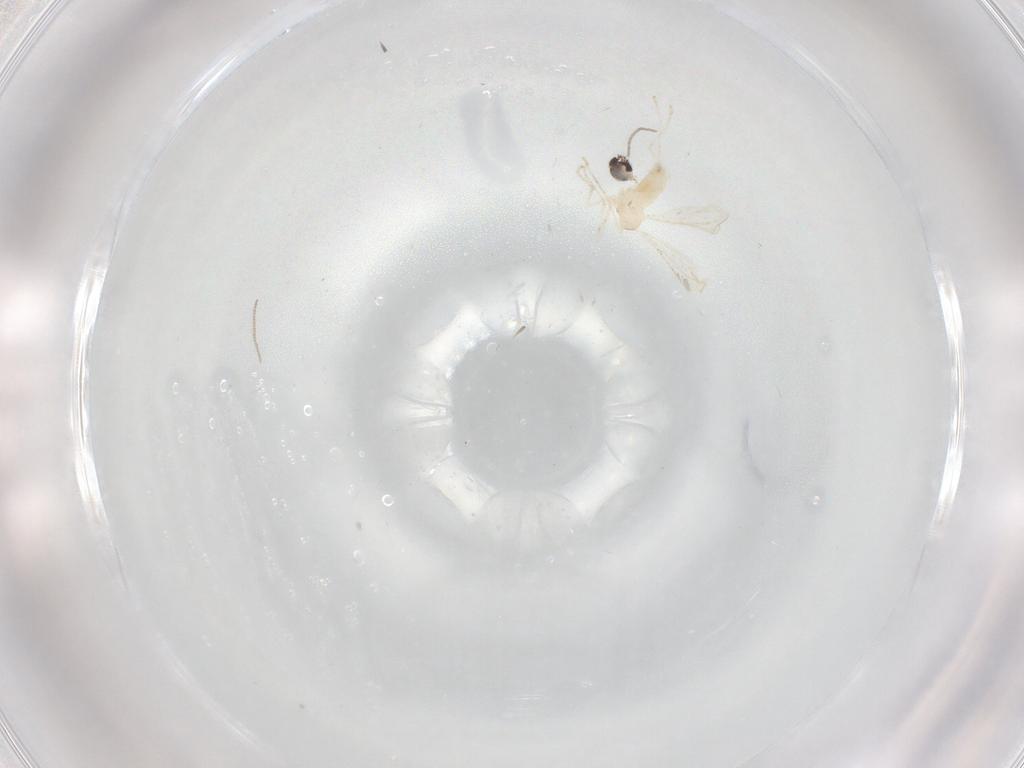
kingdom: Animalia
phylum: Arthropoda
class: Insecta
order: Diptera
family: Cecidomyiidae
